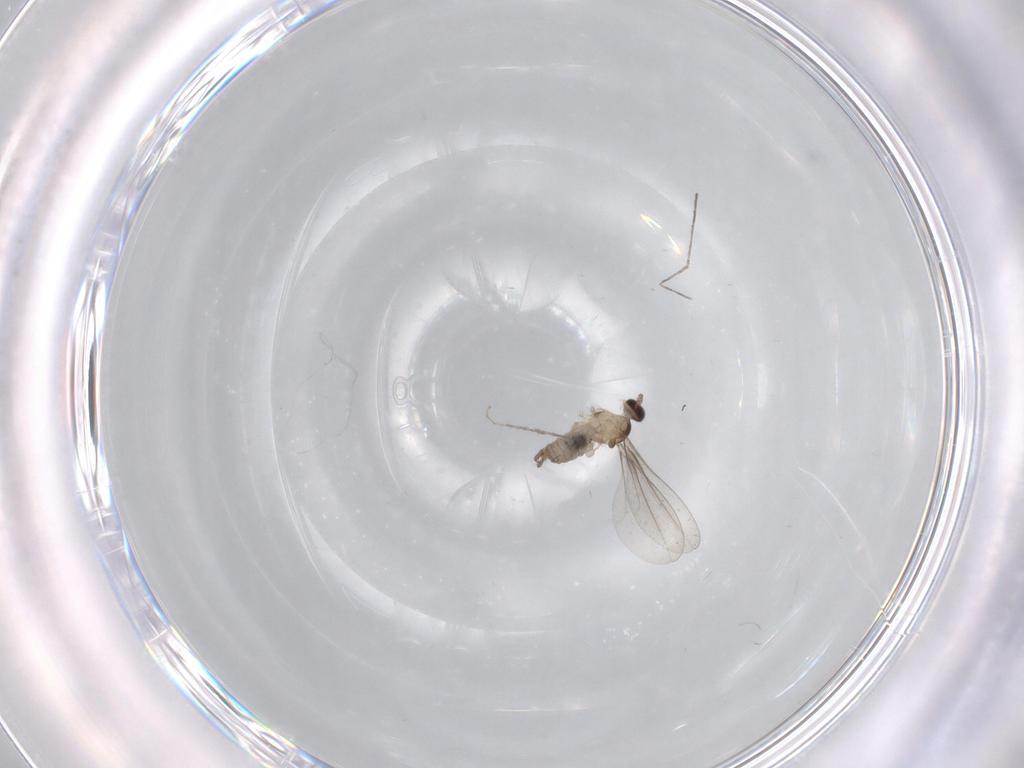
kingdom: Animalia
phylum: Arthropoda
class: Insecta
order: Diptera
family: Cecidomyiidae
